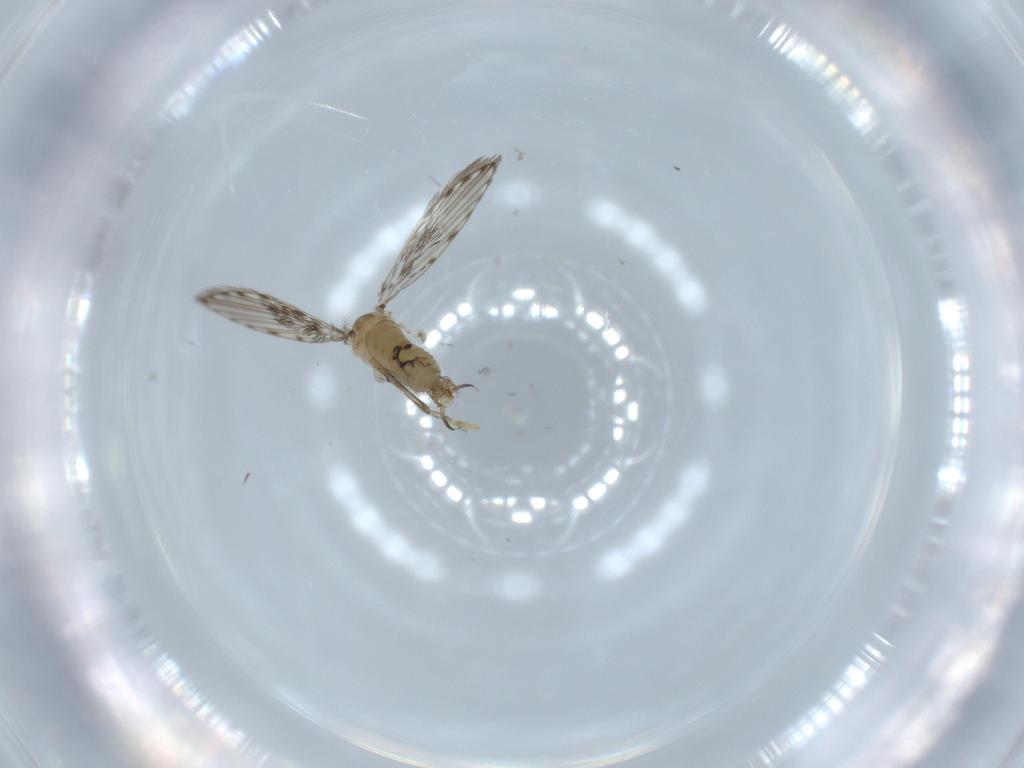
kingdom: Animalia
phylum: Arthropoda
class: Insecta
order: Diptera
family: Psychodidae
